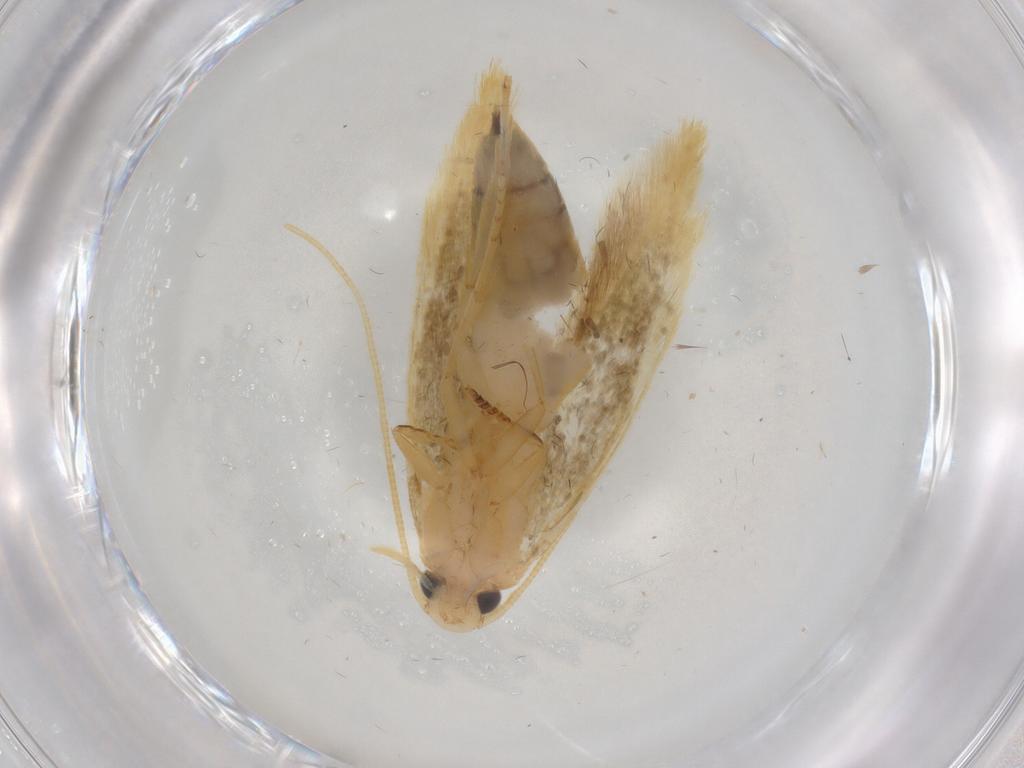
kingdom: Animalia
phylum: Arthropoda
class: Insecta
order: Lepidoptera
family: Tineidae
